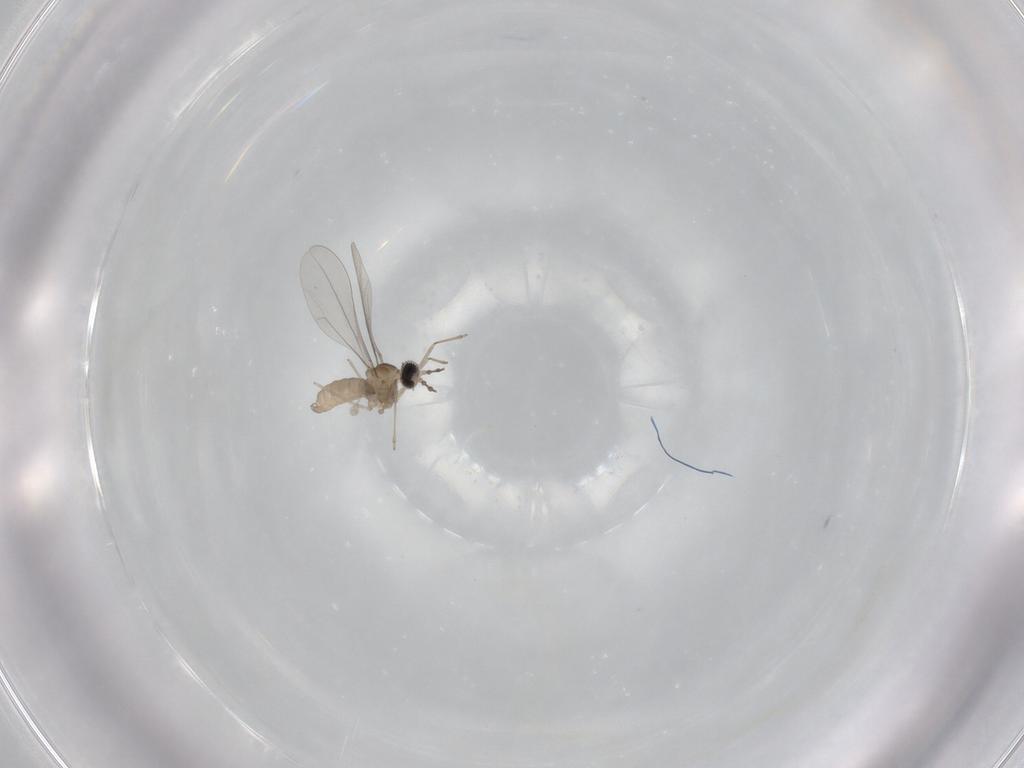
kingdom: Animalia
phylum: Arthropoda
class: Insecta
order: Diptera
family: Cecidomyiidae
